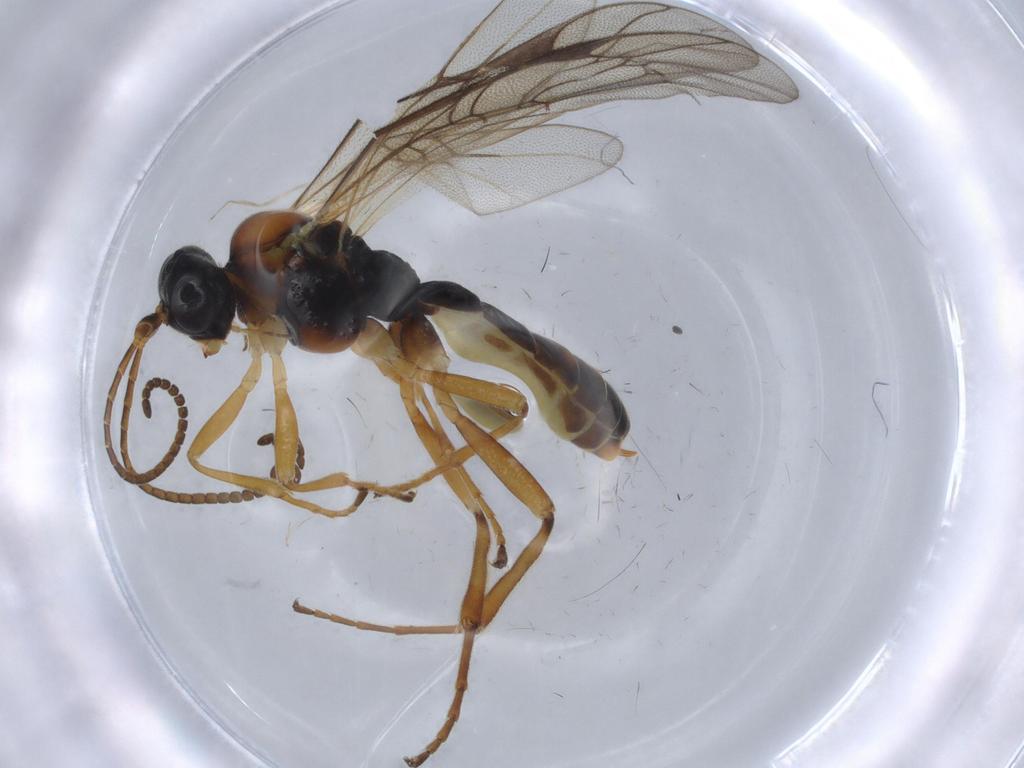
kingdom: Animalia
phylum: Arthropoda
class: Insecta
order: Hymenoptera
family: Ichneumonidae
